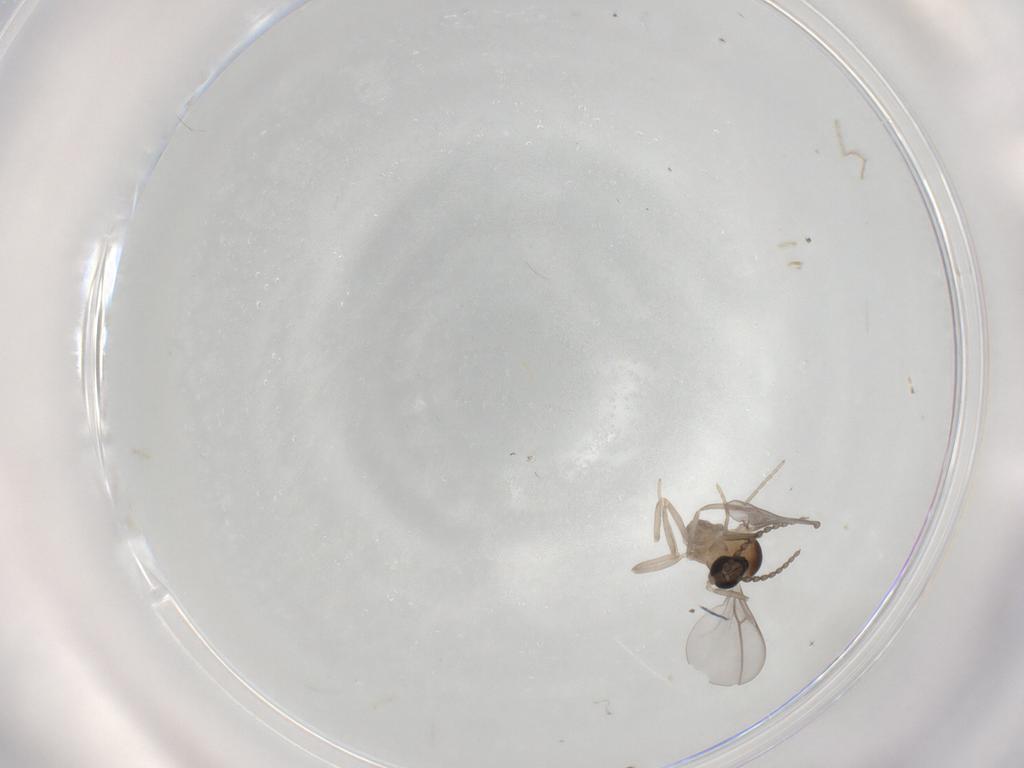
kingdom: Animalia
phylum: Arthropoda
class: Insecta
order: Diptera
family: Cecidomyiidae
